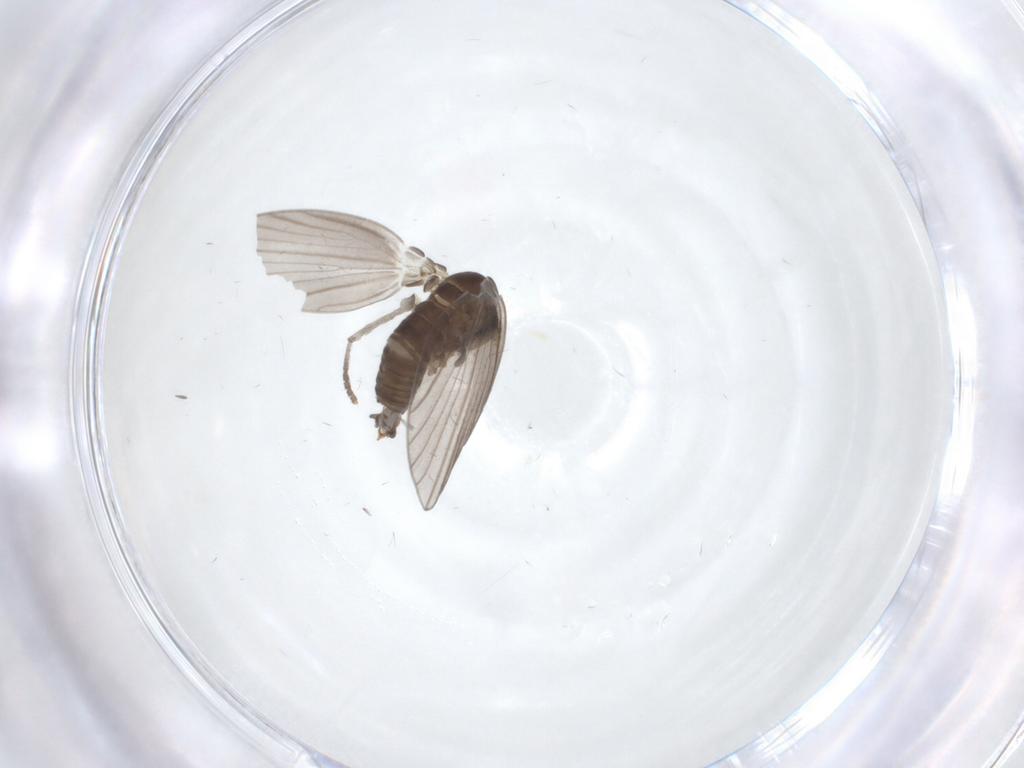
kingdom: Animalia
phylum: Arthropoda
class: Insecta
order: Diptera
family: Psychodidae
